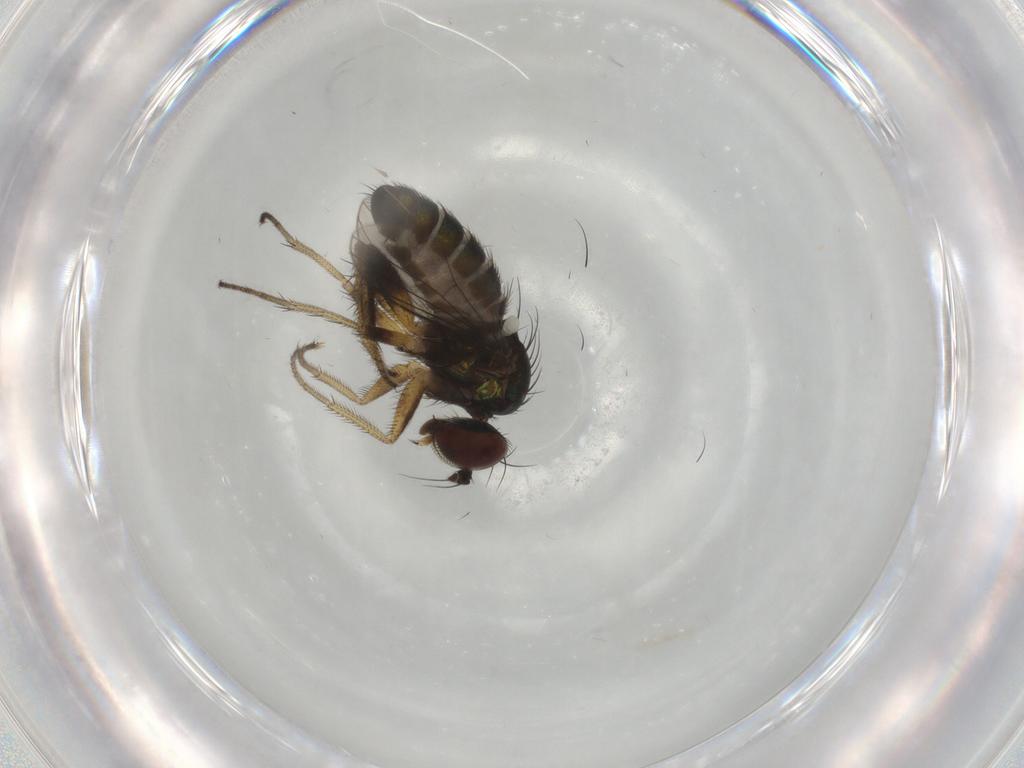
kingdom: Animalia
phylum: Arthropoda
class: Insecta
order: Diptera
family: Dolichopodidae
